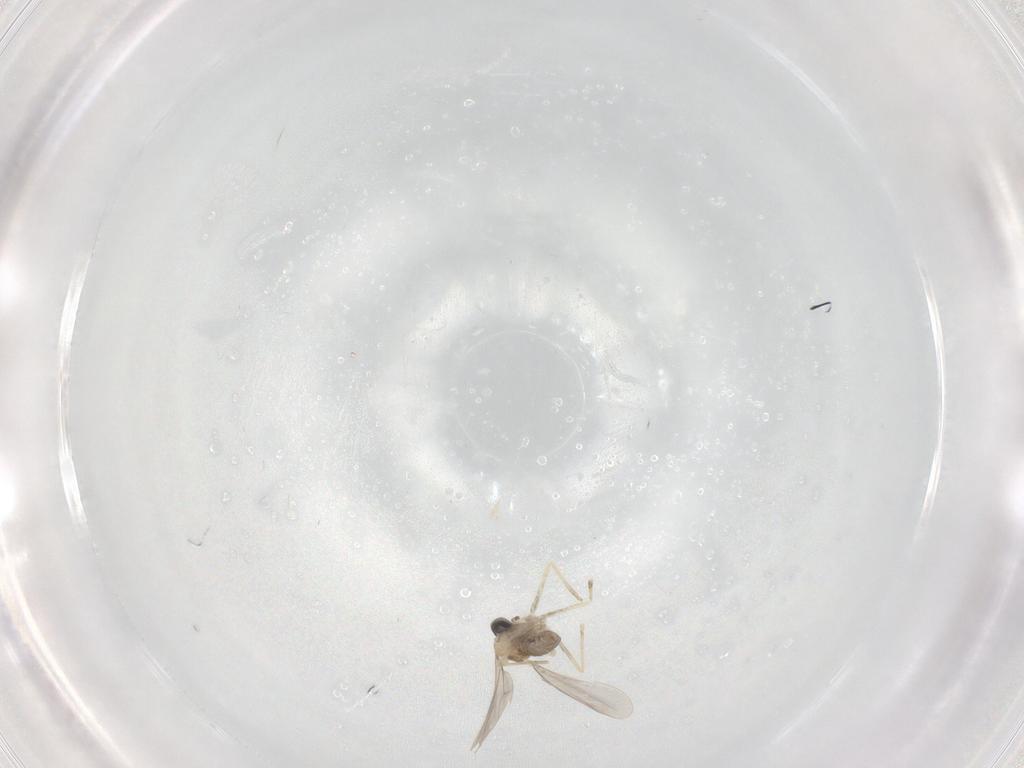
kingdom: Animalia
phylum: Arthropoda
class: Insecta
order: Diptera
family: Cecidomyiidae
